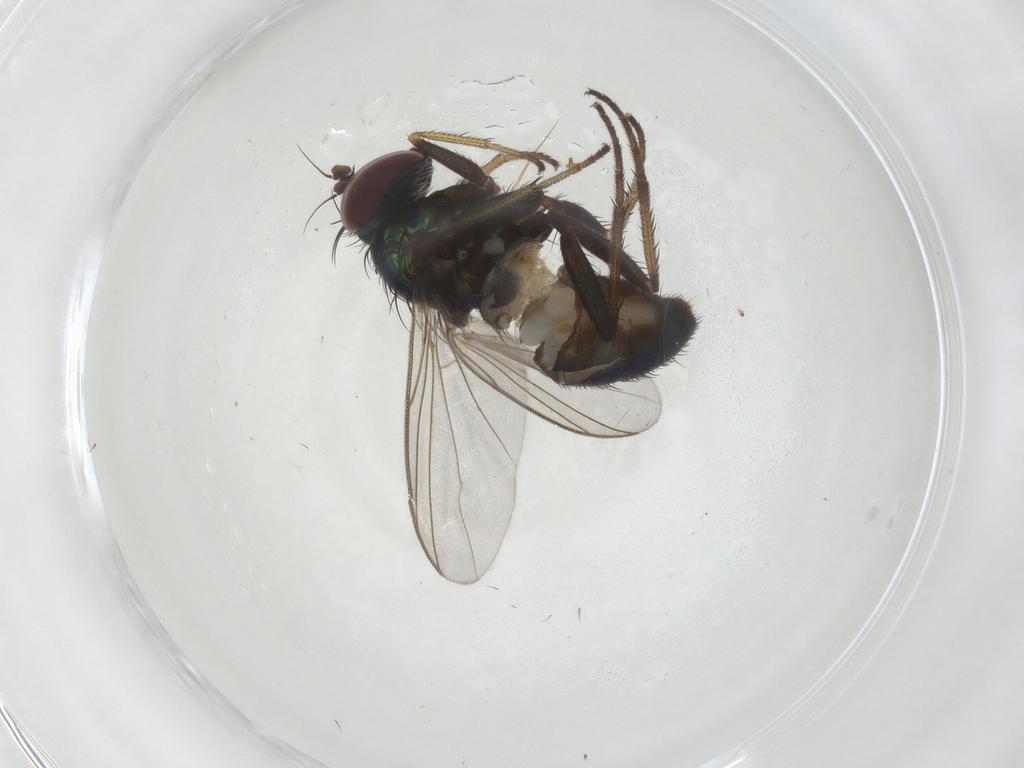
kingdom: Animalia
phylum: Arthropoda
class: Insecta
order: Diptera
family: Dolichopodidae
